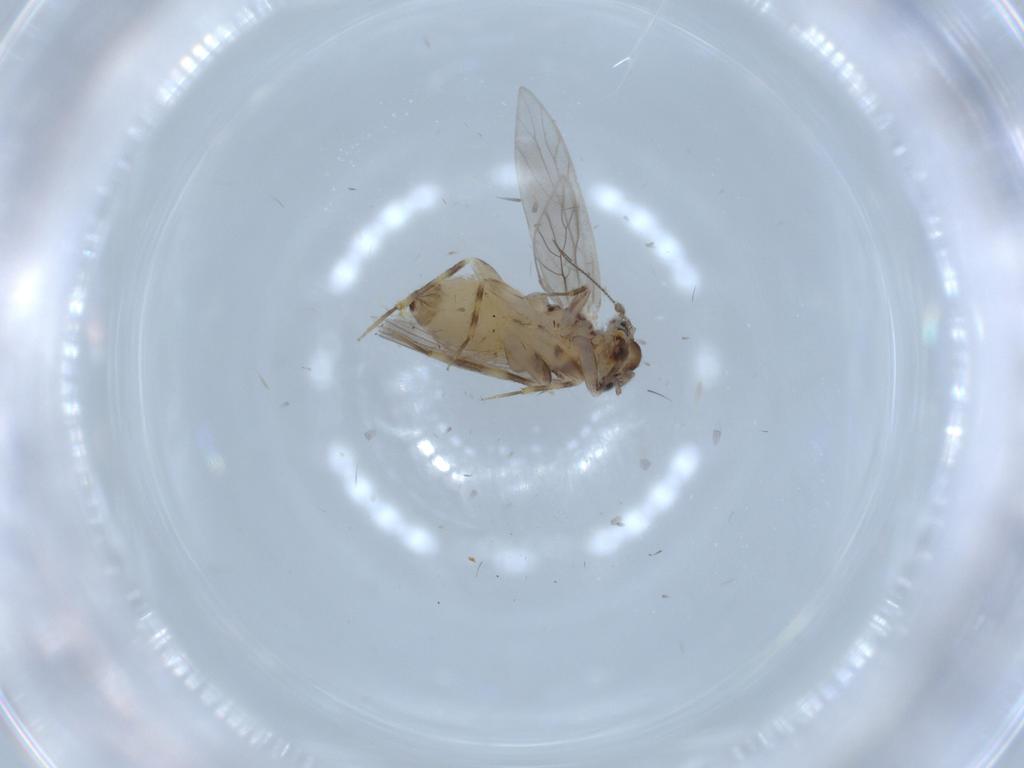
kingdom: Animalia
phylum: Arthropoda
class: Insecta
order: Psocodea
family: Lepidopsocidae
